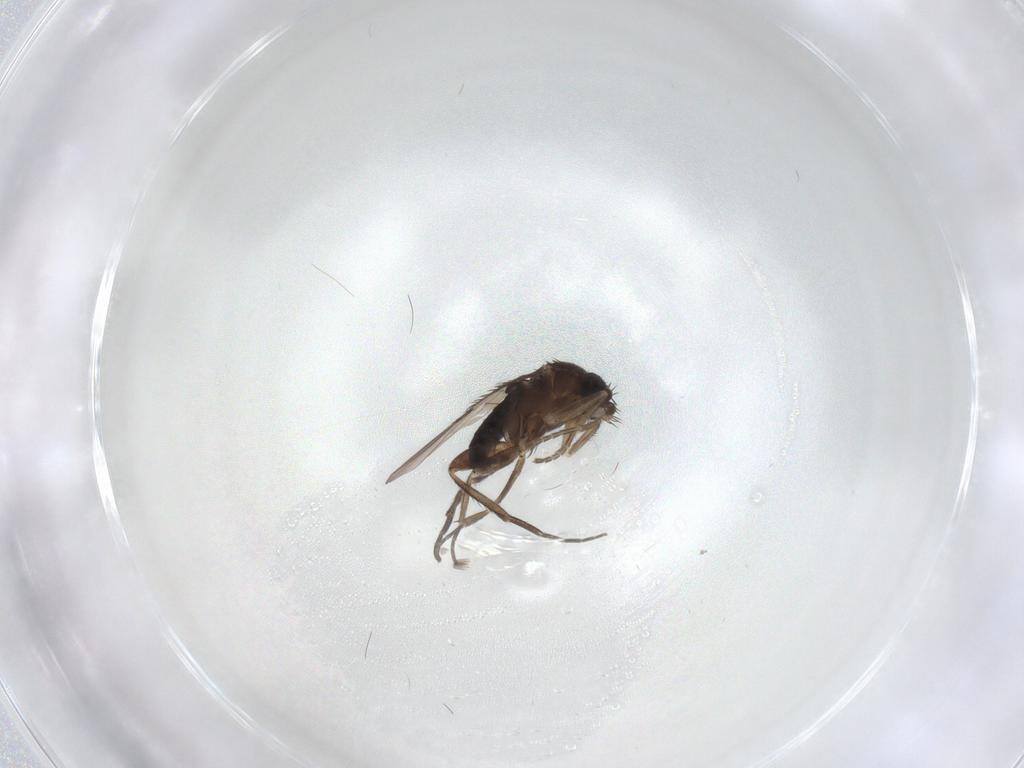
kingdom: Animalia
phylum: Arthropoda
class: Insecta
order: Diptera
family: Phoridae
